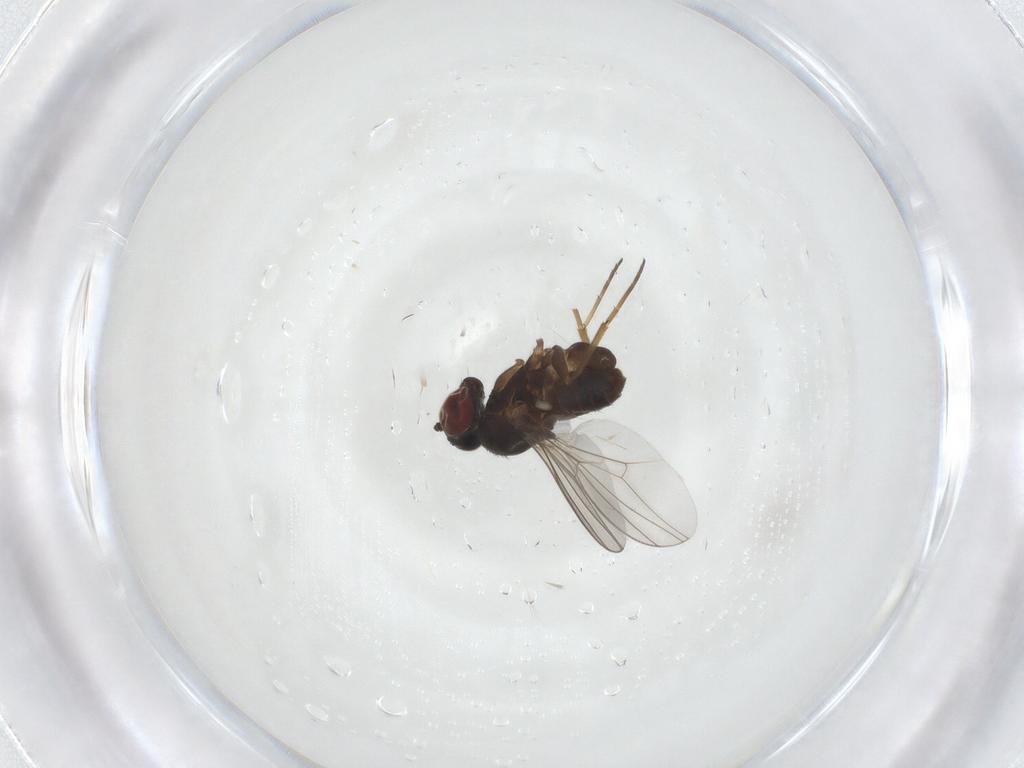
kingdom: Animalia
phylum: Arthropoda
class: Insecta
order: Diptera
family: Dolichopodidae
